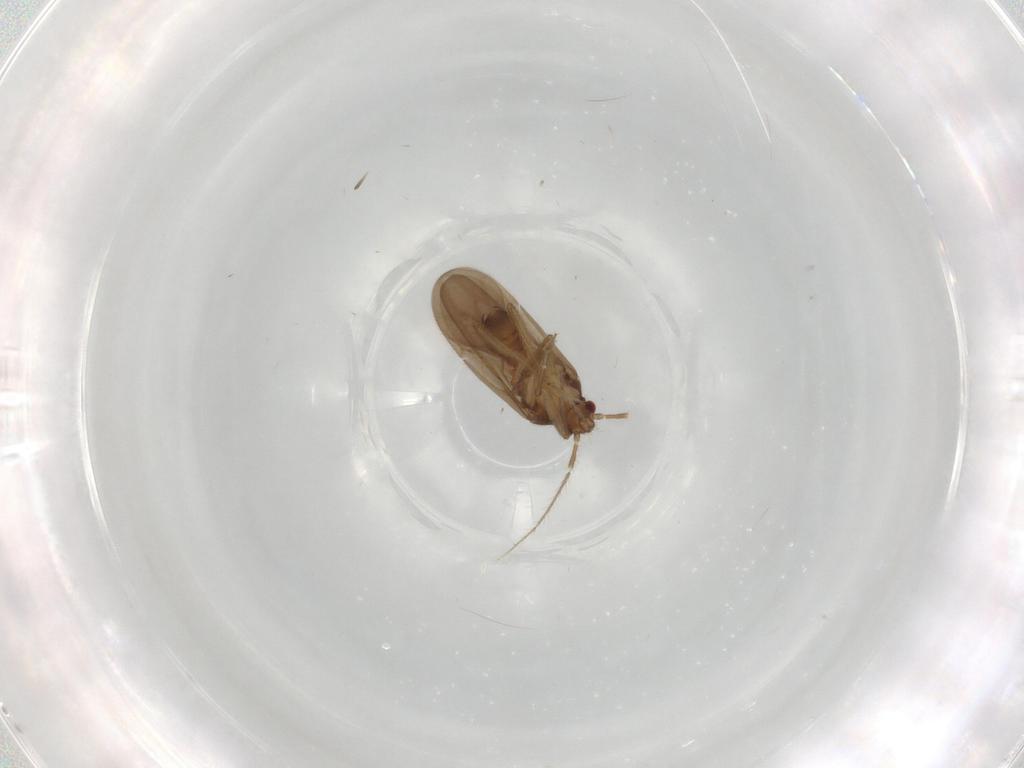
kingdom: Animalia
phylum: Arthropoda
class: Insecta
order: Hemiptera
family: Ceratocombidae
